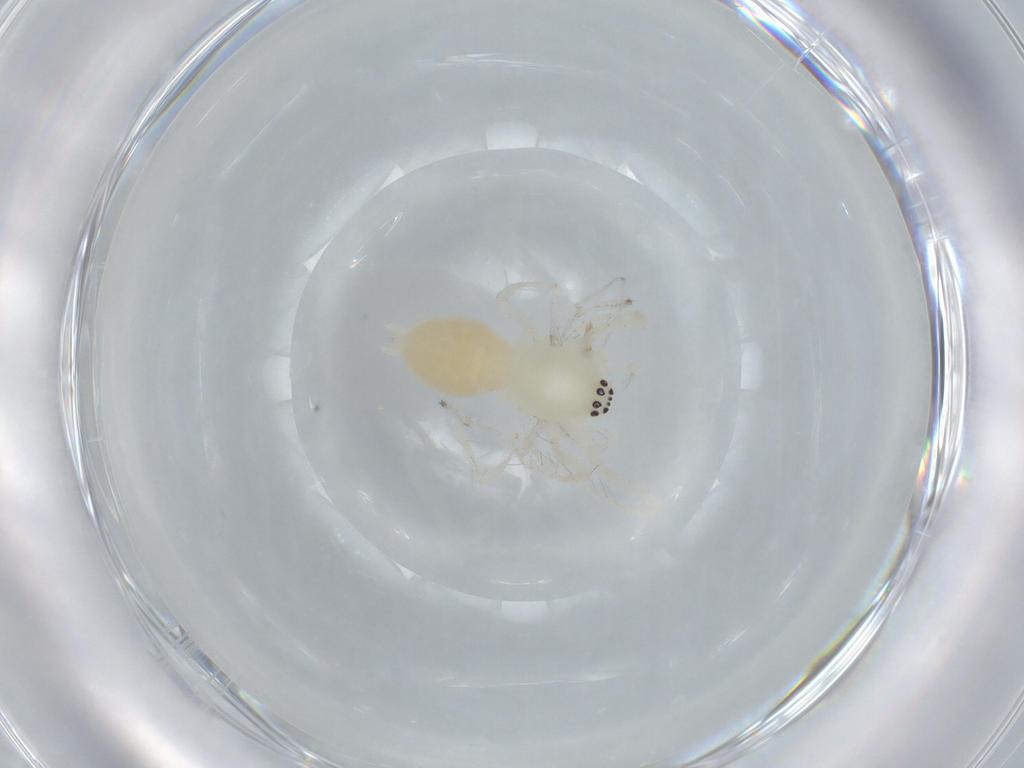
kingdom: Animalia
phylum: Arthropoda
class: Arachnida
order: Araneae
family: Anyphaenidae
